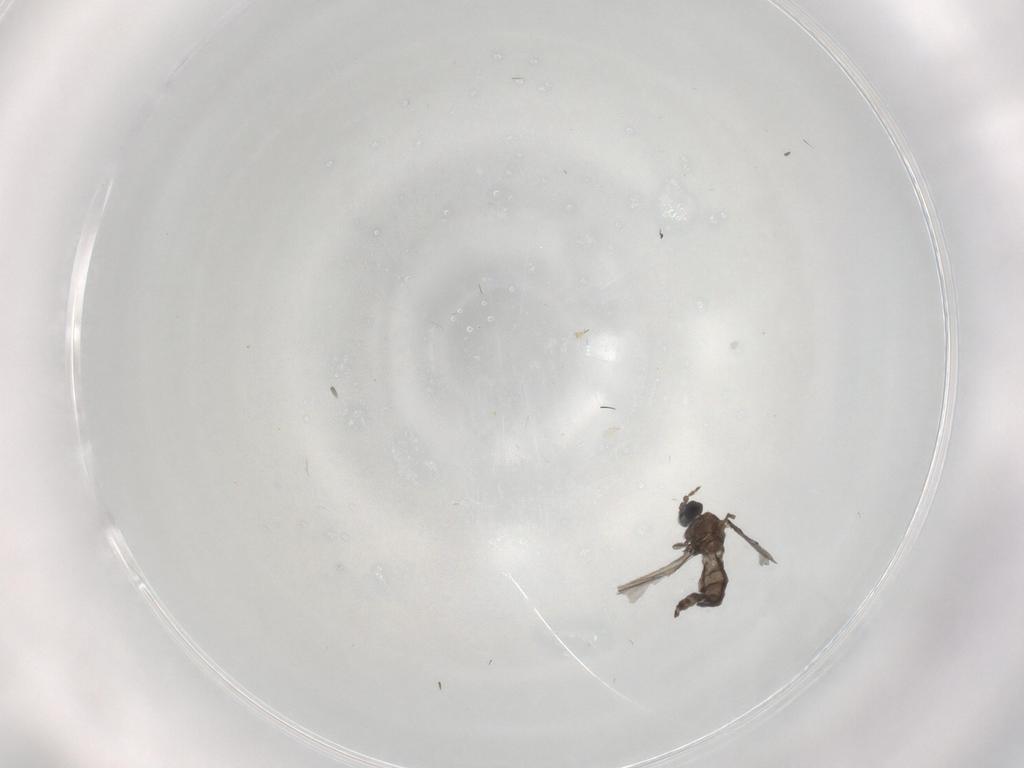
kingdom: Animalia
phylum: Arthropoda
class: Insecta
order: Diptera
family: Sciaridae
